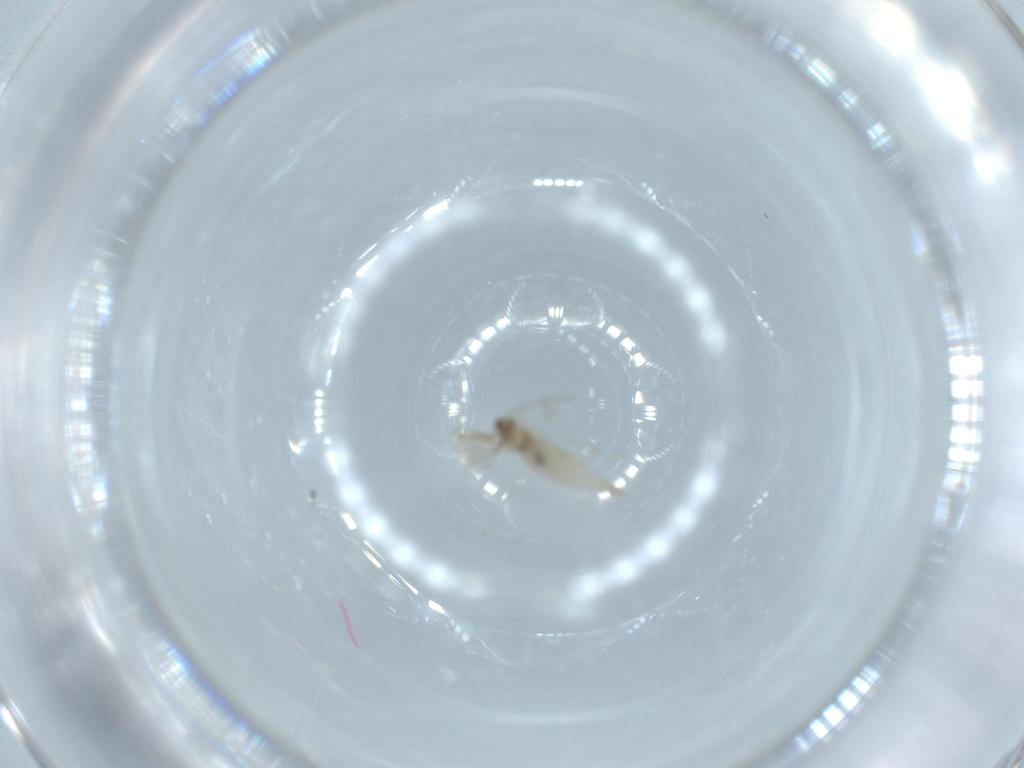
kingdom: Animalia
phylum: Arthropoda
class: Insecta
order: Diptera
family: Cecidomyiidae
